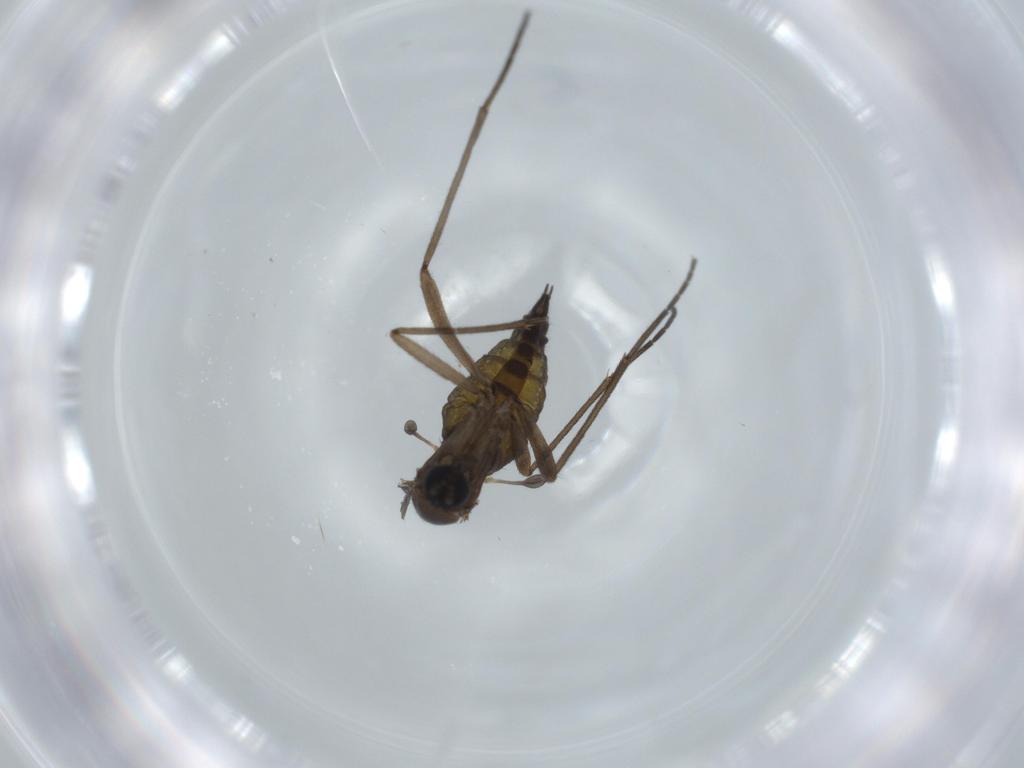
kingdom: Animalia
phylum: Arthropoda
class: Insecta
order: Diptera
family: Sciaridae
